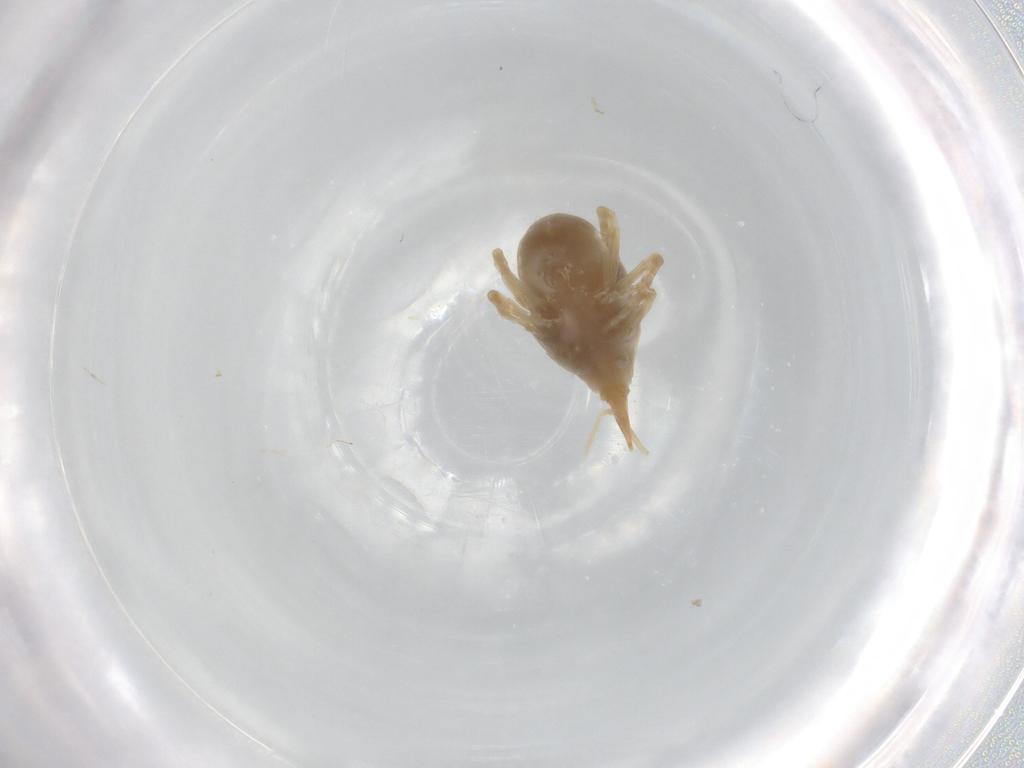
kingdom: Animalia
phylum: Arthropoda
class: Arachnida
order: Trombidiformes
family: Bdellidae
